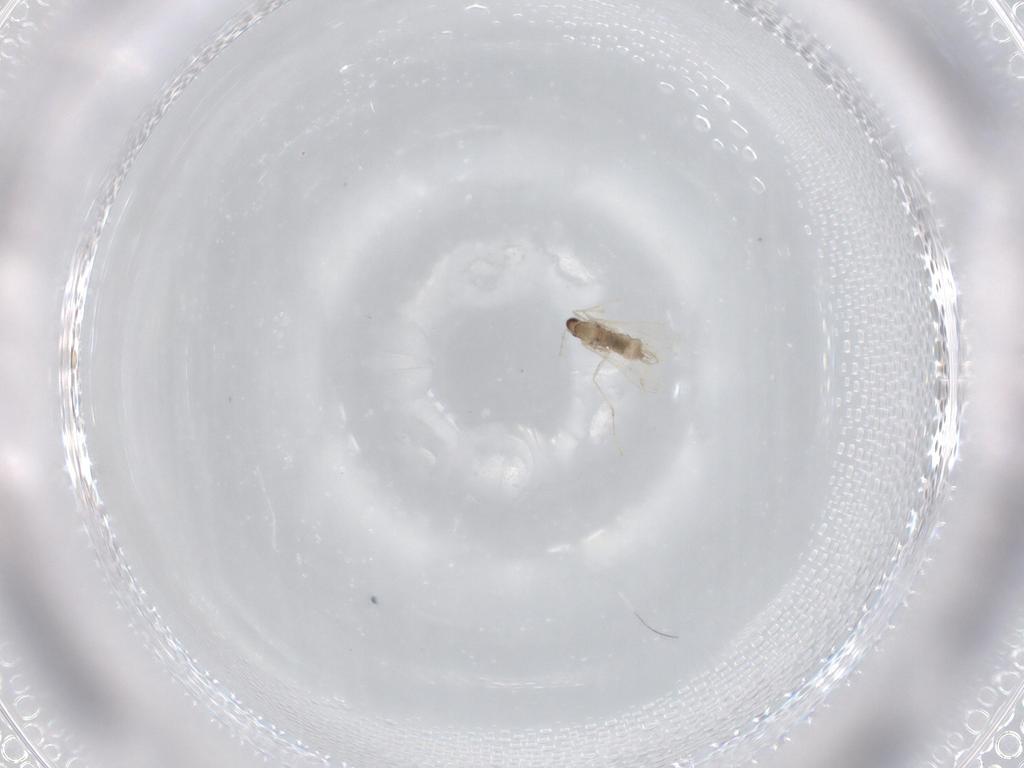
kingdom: Animalia
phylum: Arthropoda
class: Insecta
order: Diptera
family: Cecidomyiidae
